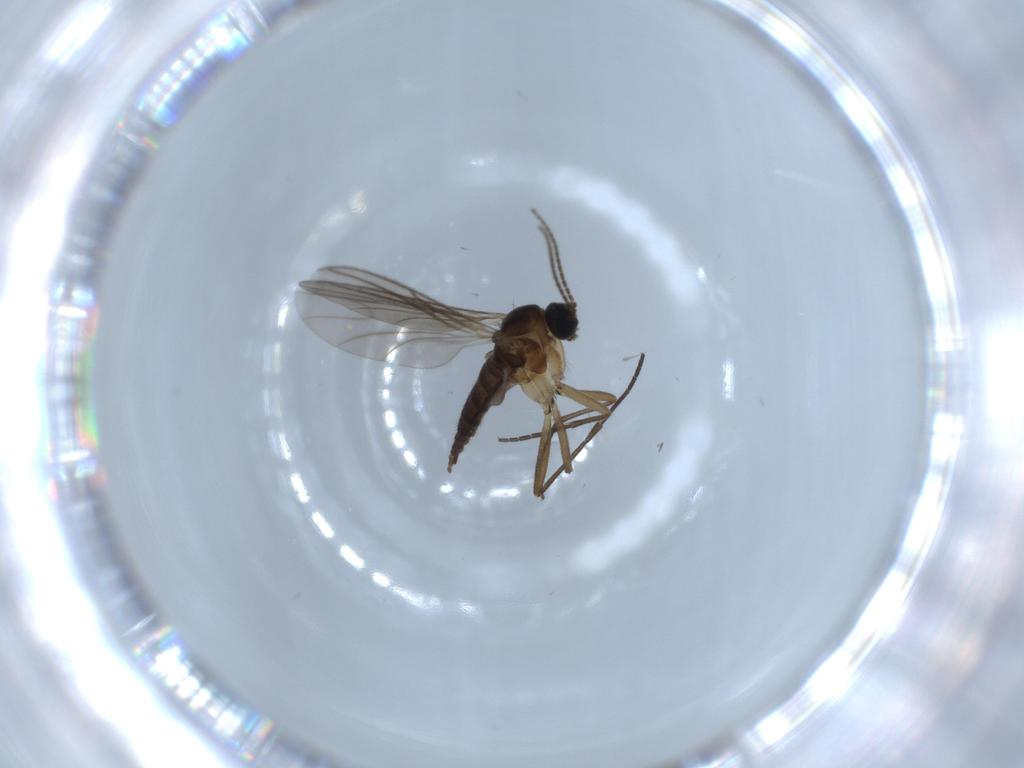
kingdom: Animalia
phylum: Arthropoda
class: Insecta
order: Diptera
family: Sciaridae
